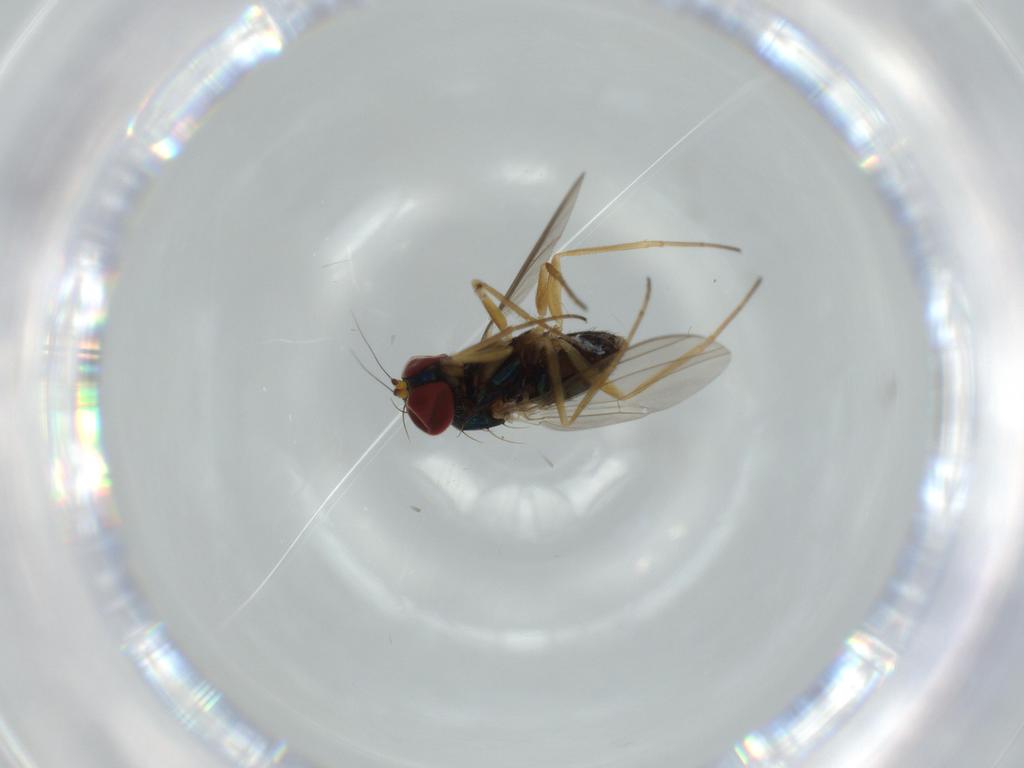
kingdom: Animalia
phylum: Arthropoda
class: Insecta
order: Diptera
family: Dolichopodidae
